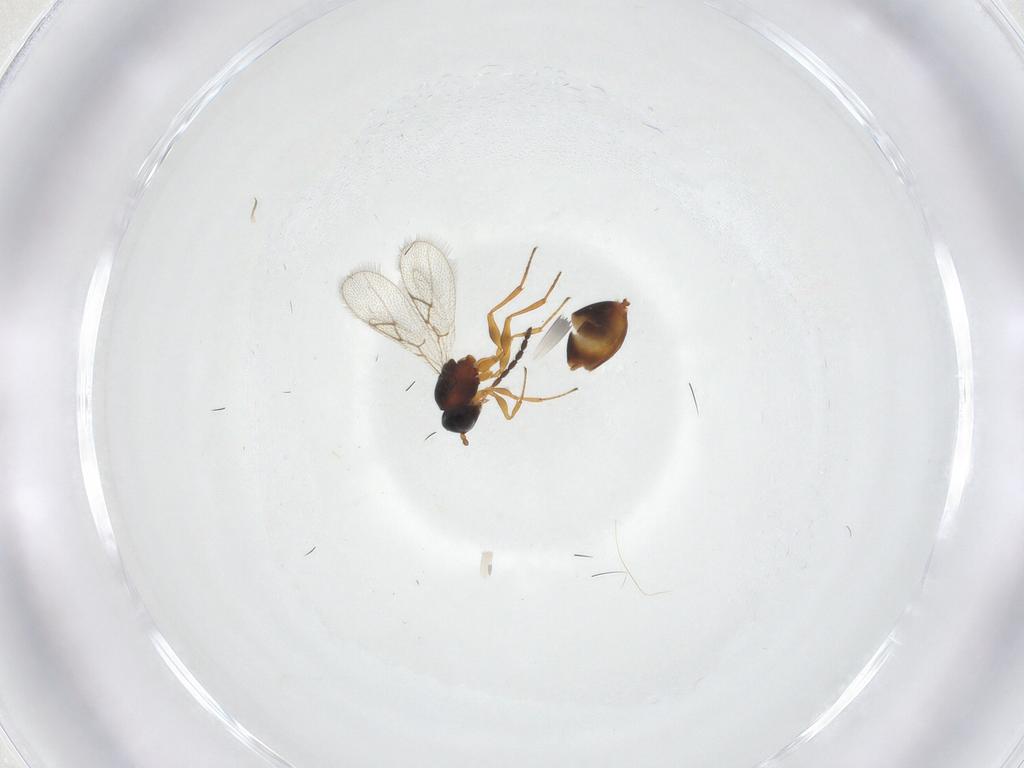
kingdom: Animalia
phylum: Arthropoda
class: Insecta
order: Hymenoptera
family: Figitidae
